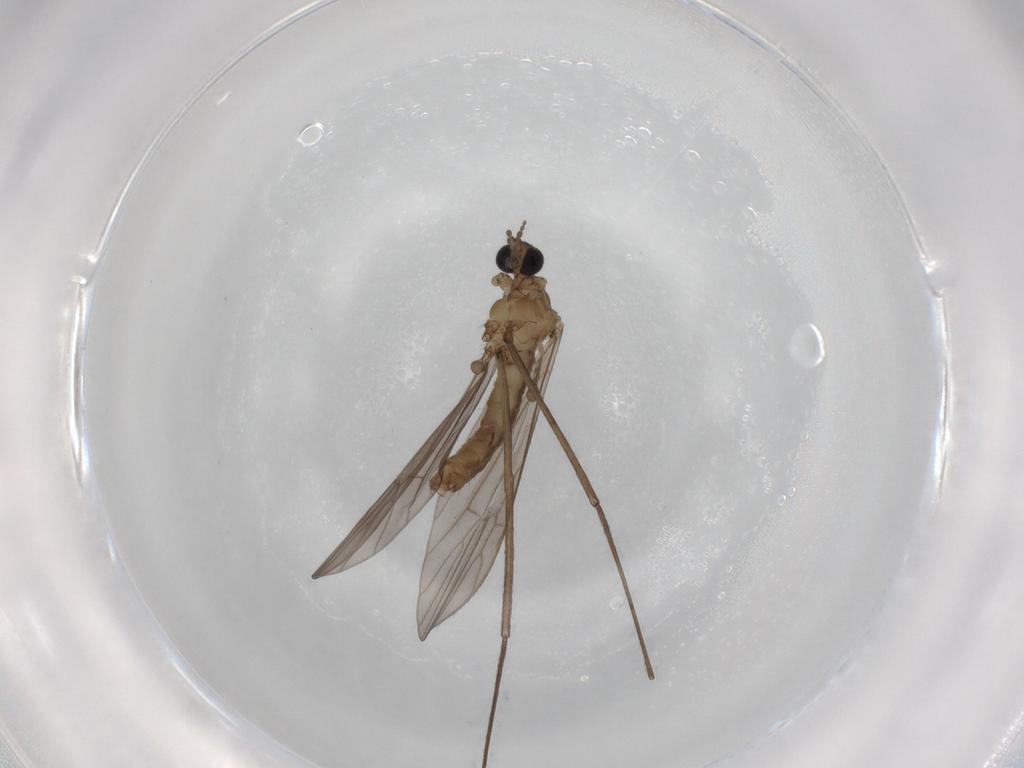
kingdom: Animalia
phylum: Arthropoda
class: Insecta
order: Diptera
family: Limoniidae
